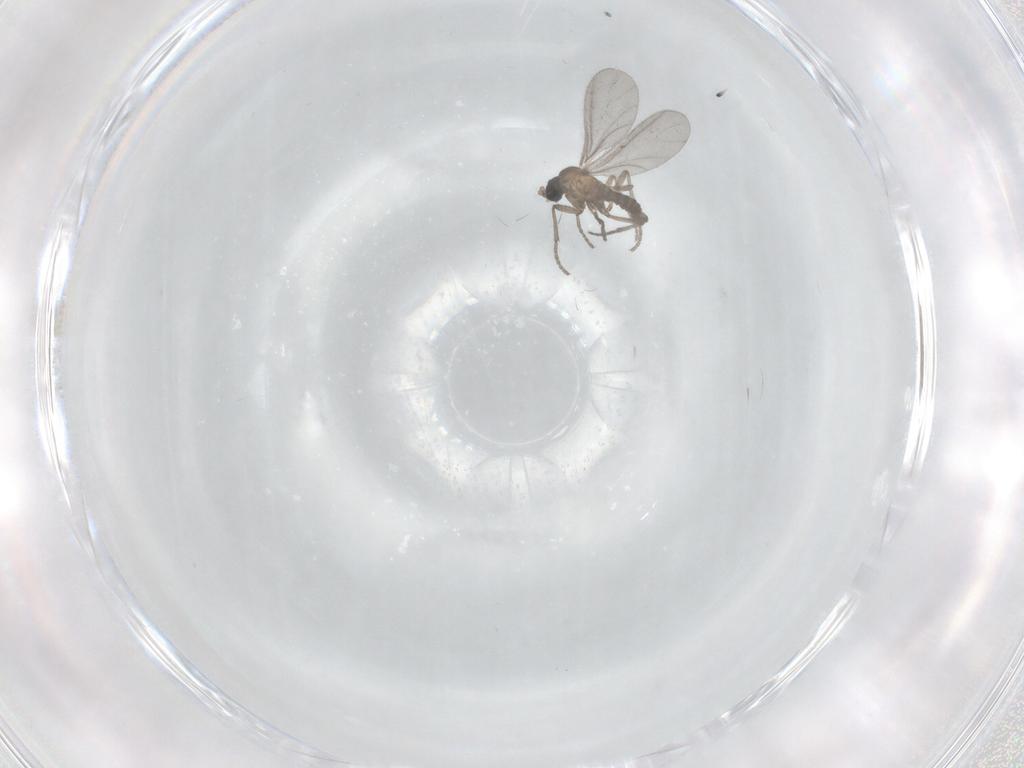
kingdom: Animalia
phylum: Arthropoda
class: Insecta
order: Diptera
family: Sciaridae
